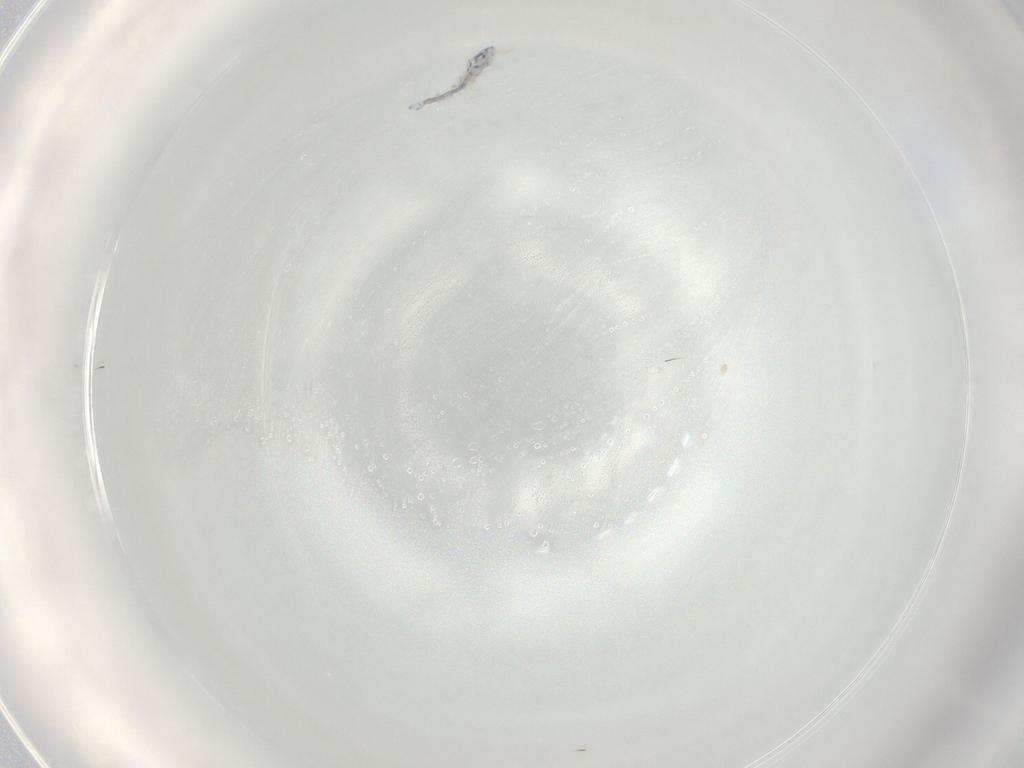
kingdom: Animalia
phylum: Arthropoda
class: Collembola
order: Entomobryomorpha
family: Entomobryidae
